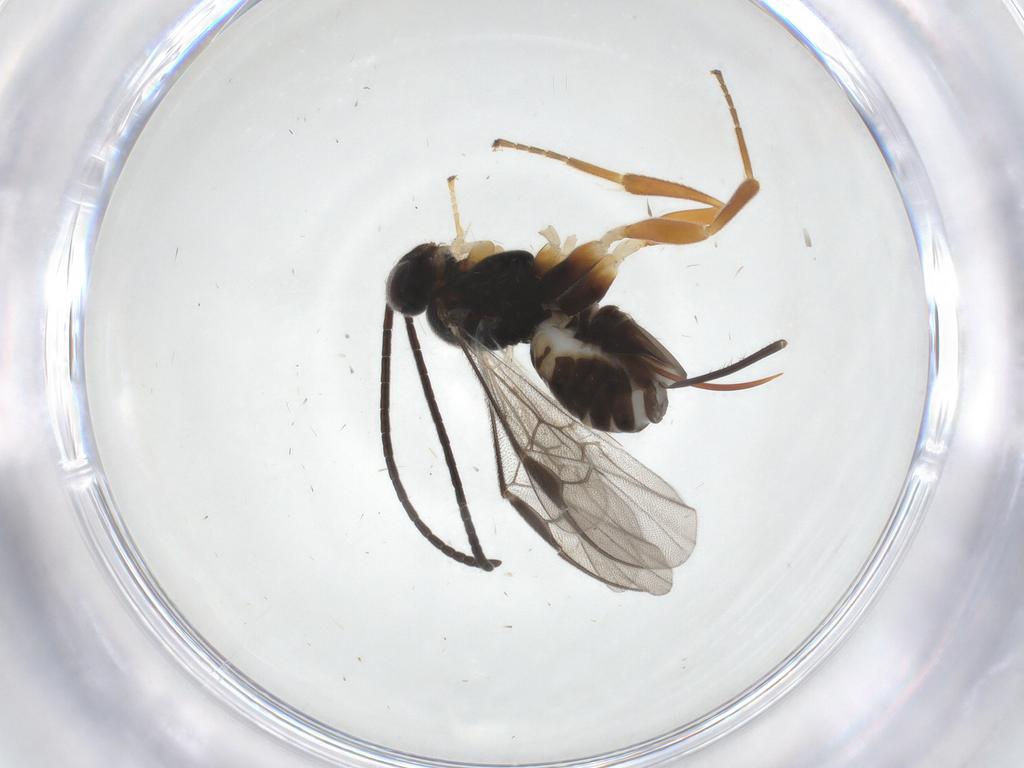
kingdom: Animalia
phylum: Arthropoda
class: Insecta
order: Hymenoptera
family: Braconidae
